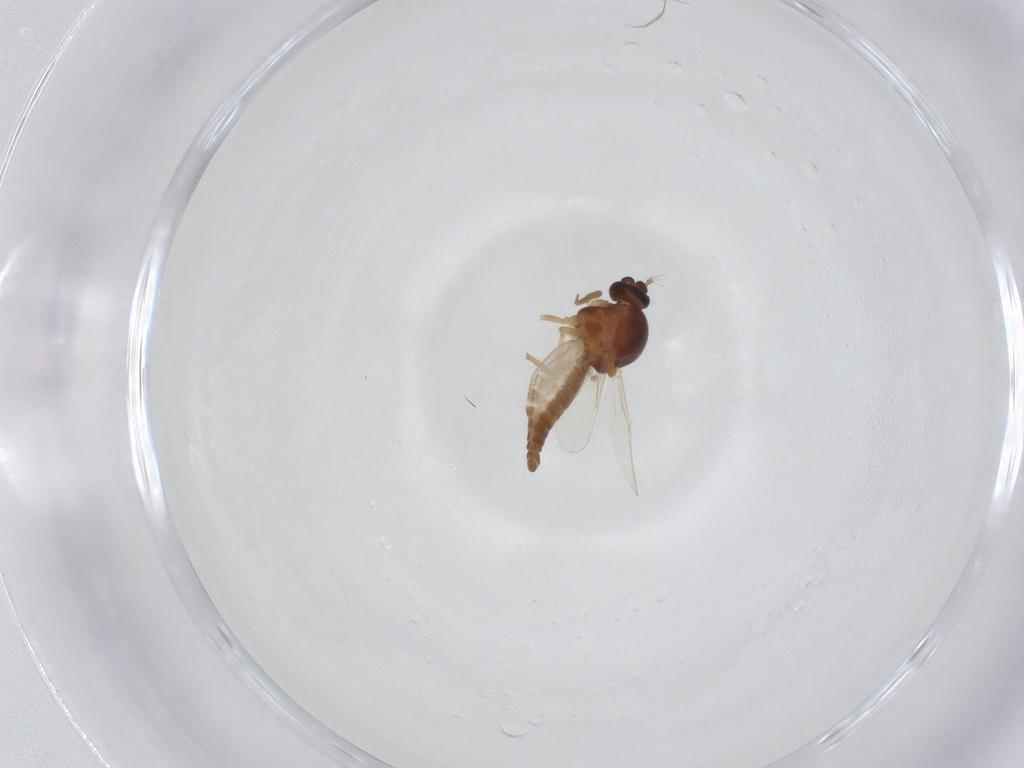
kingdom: Animalia
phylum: Arthropoda
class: Insecta
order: Diptera
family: Ceratopogonidae
